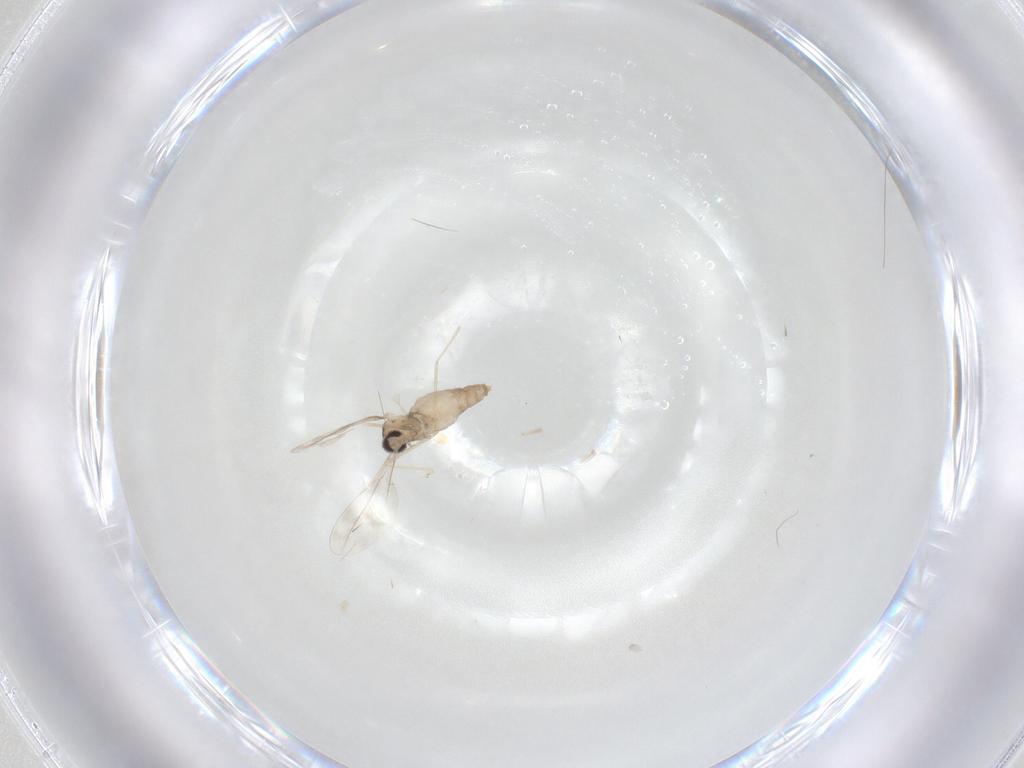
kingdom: Animalia
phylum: Arthropoda
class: Insecta
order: Diptera
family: Cecidomyiidae
